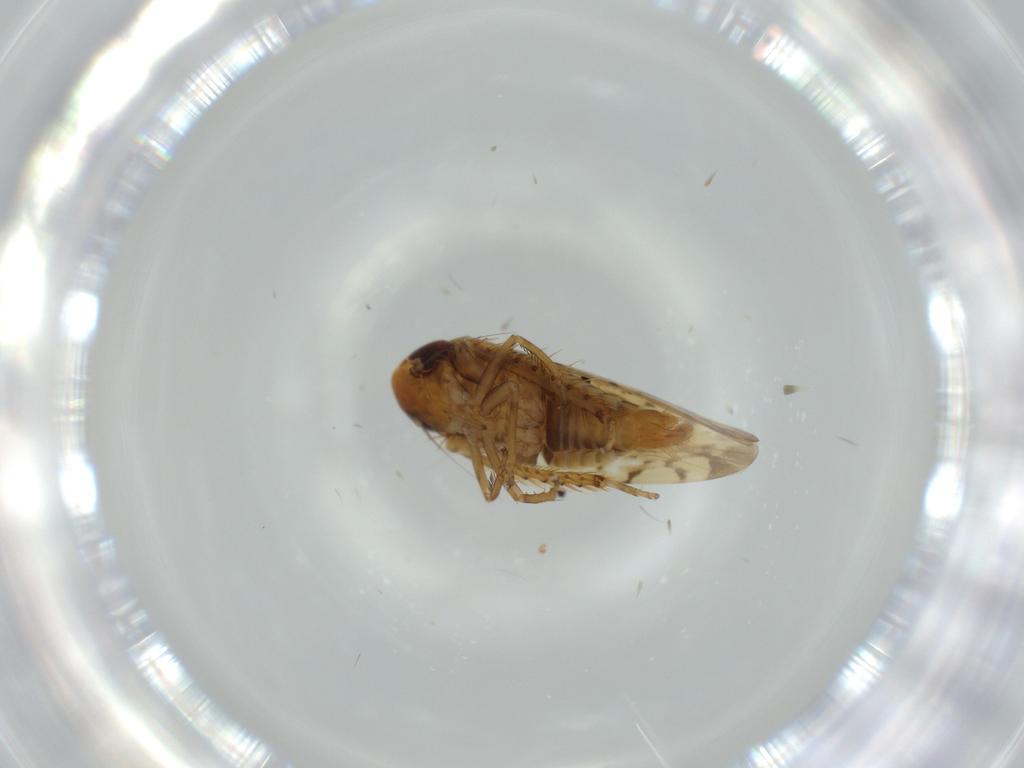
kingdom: Animalia
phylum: Arthropoda
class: Insecta
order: Hemiptera
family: Cicadellidae
